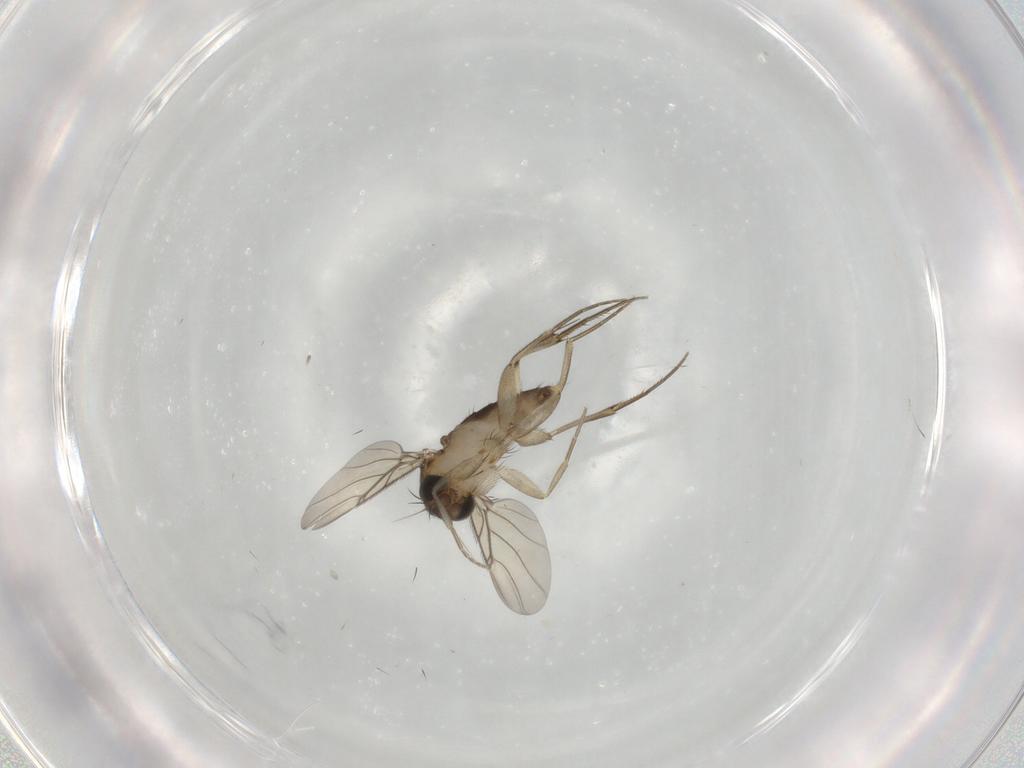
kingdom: Animalia
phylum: Arthropoda
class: Insecta
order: Diptera
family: Phoridae
